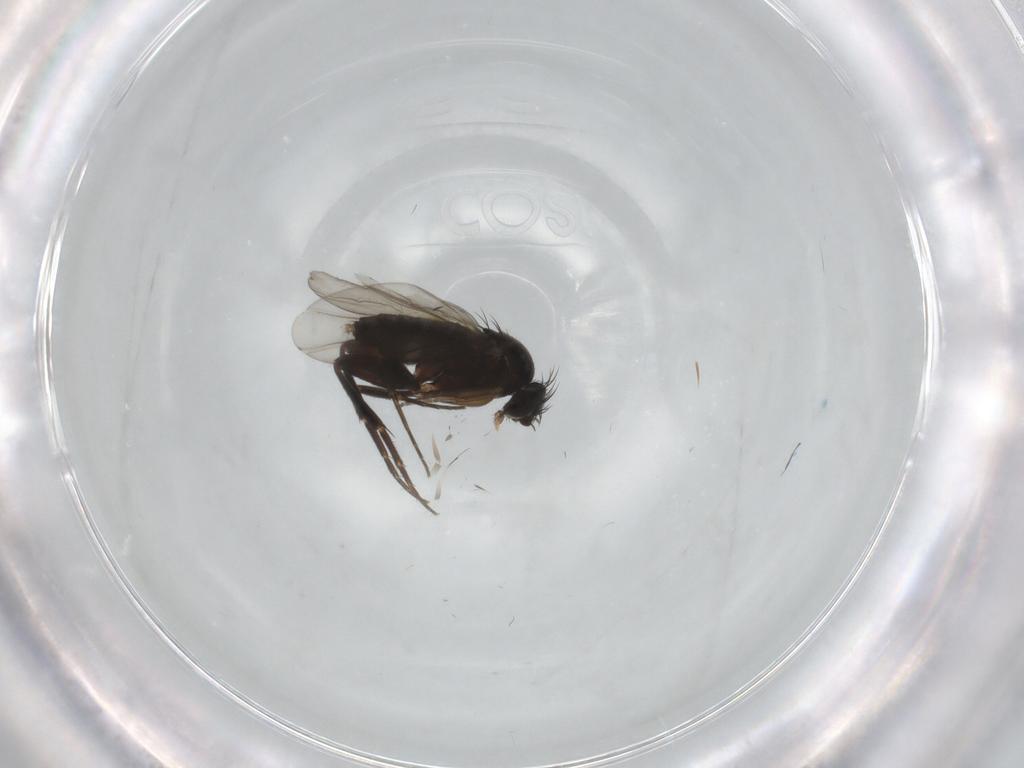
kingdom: Animalia
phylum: Arthropoda
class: Insecta
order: Diptera
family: Phoridae
